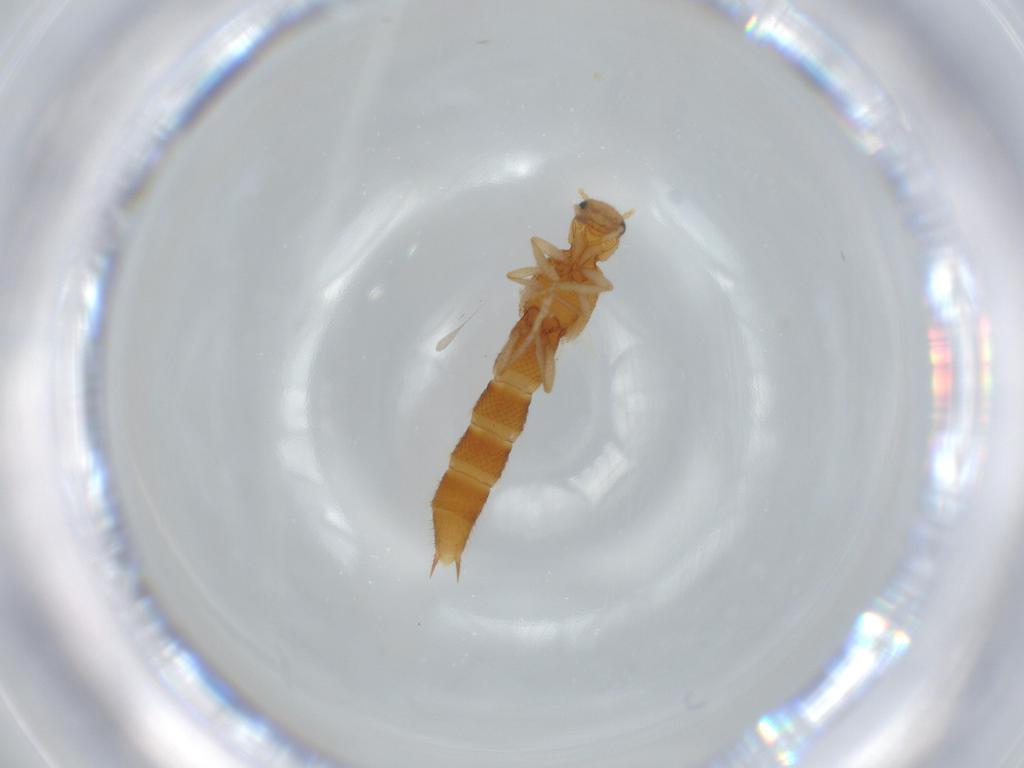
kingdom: Animalia
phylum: Arthropoda
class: Insecta
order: Coleoptera
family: Staphylinidae
